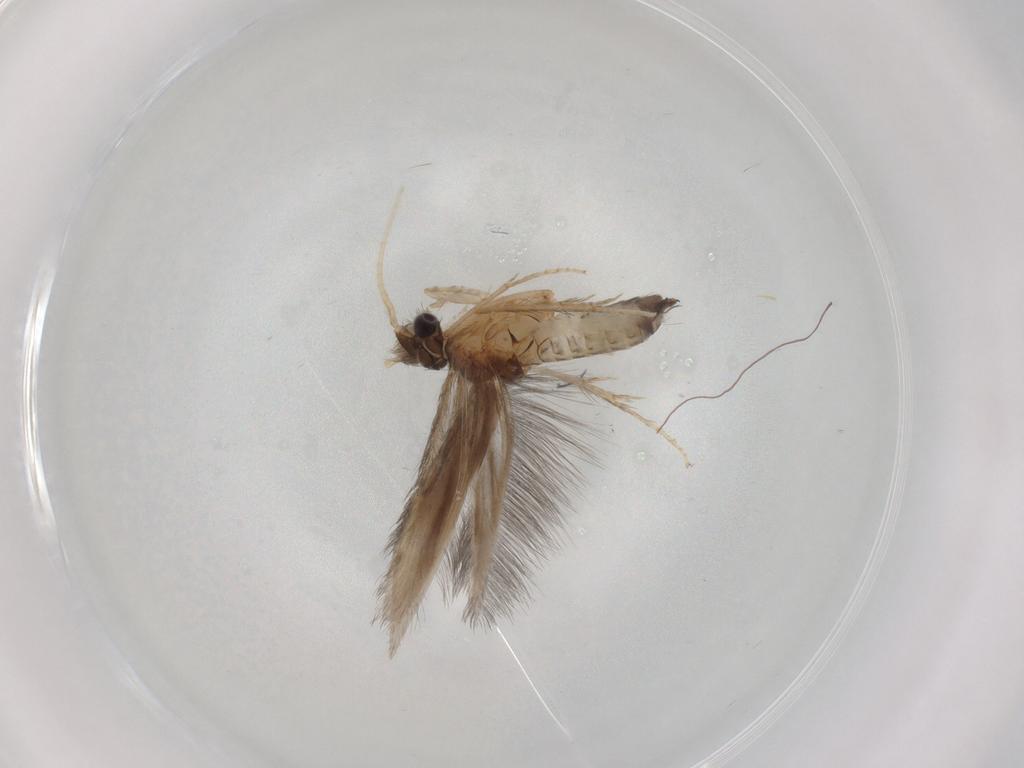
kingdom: Animalia
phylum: Arthropoda
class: Insecta
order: Trichoptera
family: Hydroptilidae
